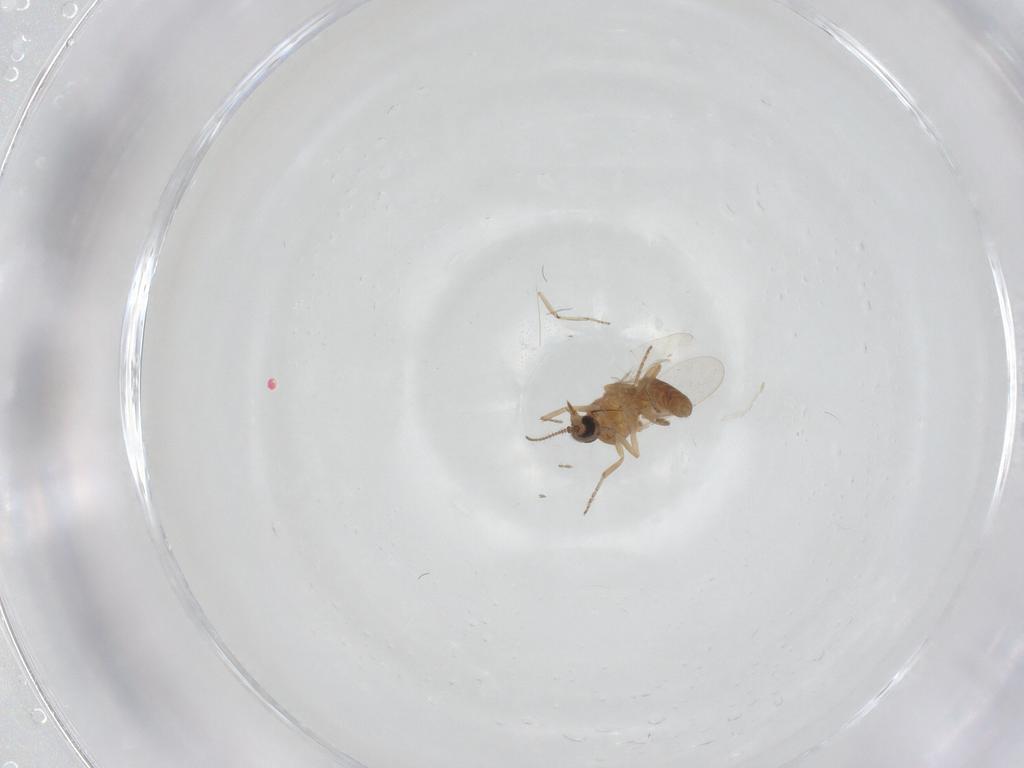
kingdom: Animalia
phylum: Arthropoda
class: Insecta
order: Diptera
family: Ceratopogonidae
